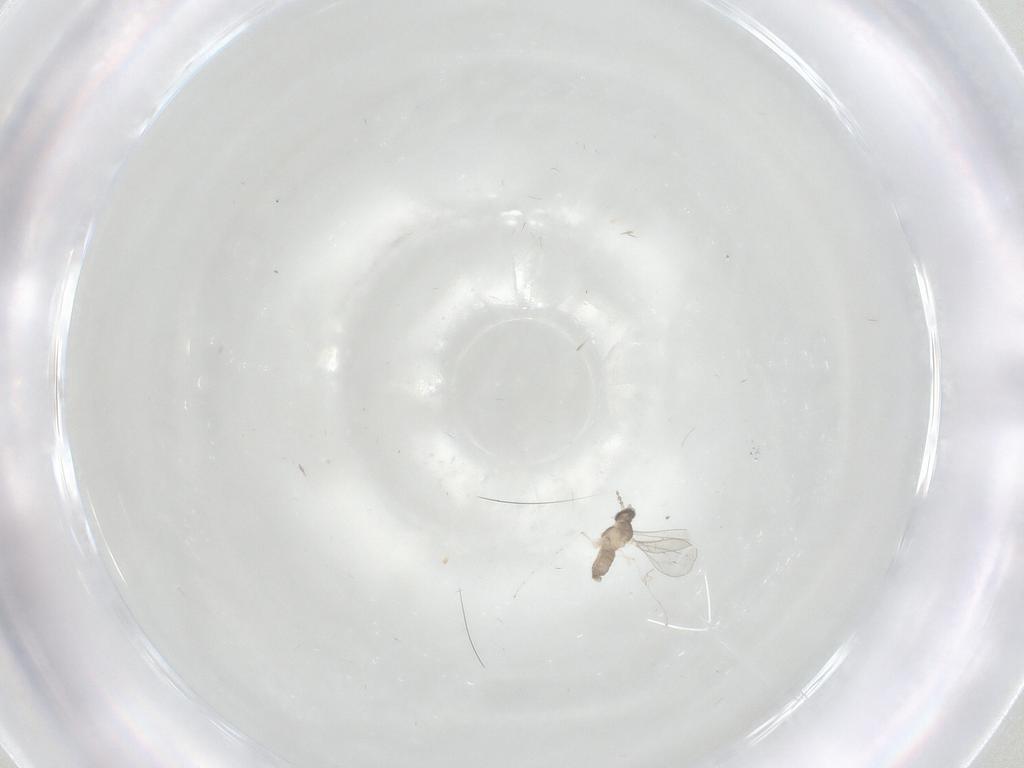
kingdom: Animalia
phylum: Arthropoda
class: Insecta
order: Diptera
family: Cecidomyiidae
